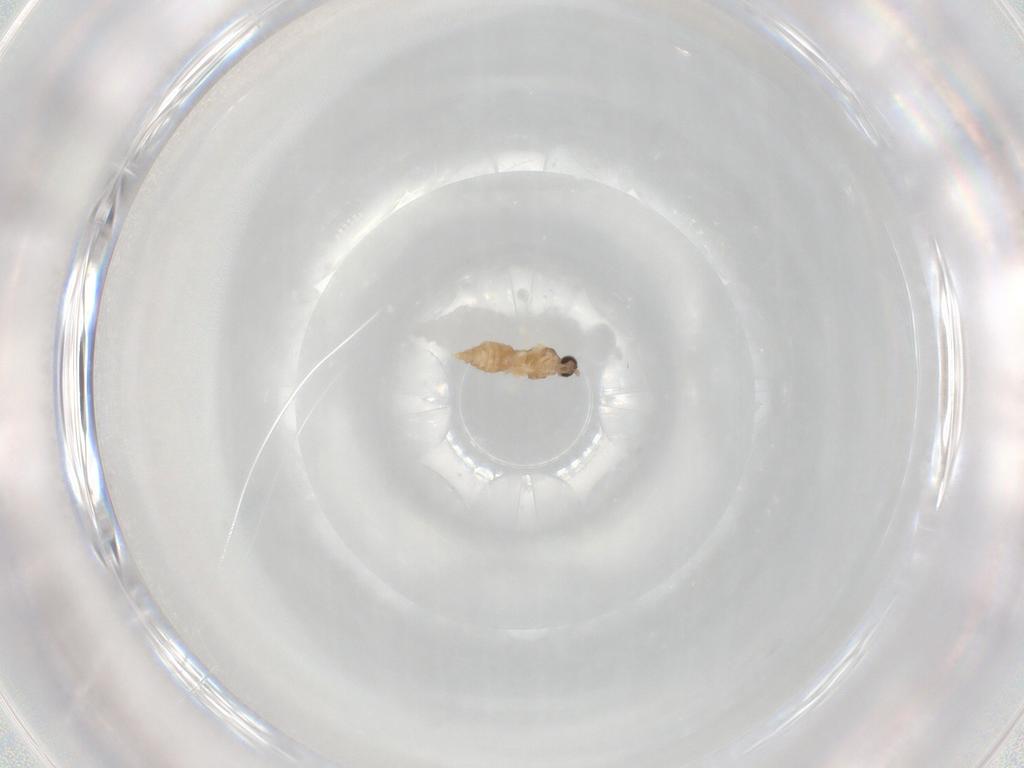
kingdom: Animalia
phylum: Arthropoda
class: Insecta
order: Diptera
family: Cecidomyiidae
